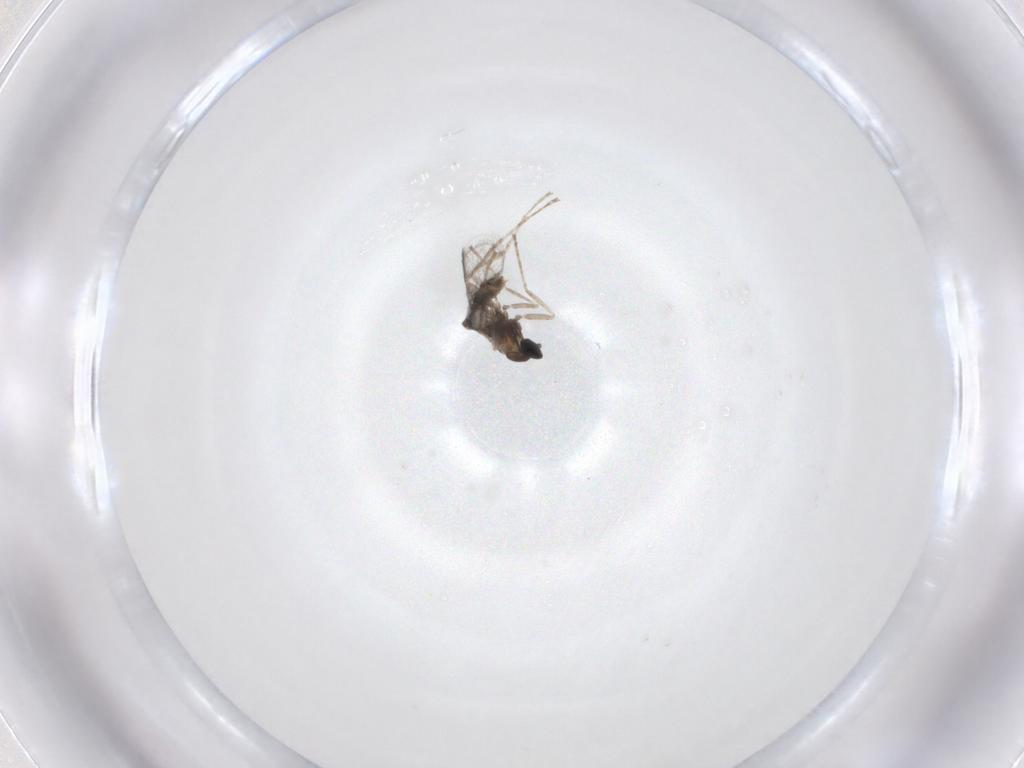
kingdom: Animalia
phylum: Arthropoda
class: Insecta
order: Diptera
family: Cecidomyiidae
